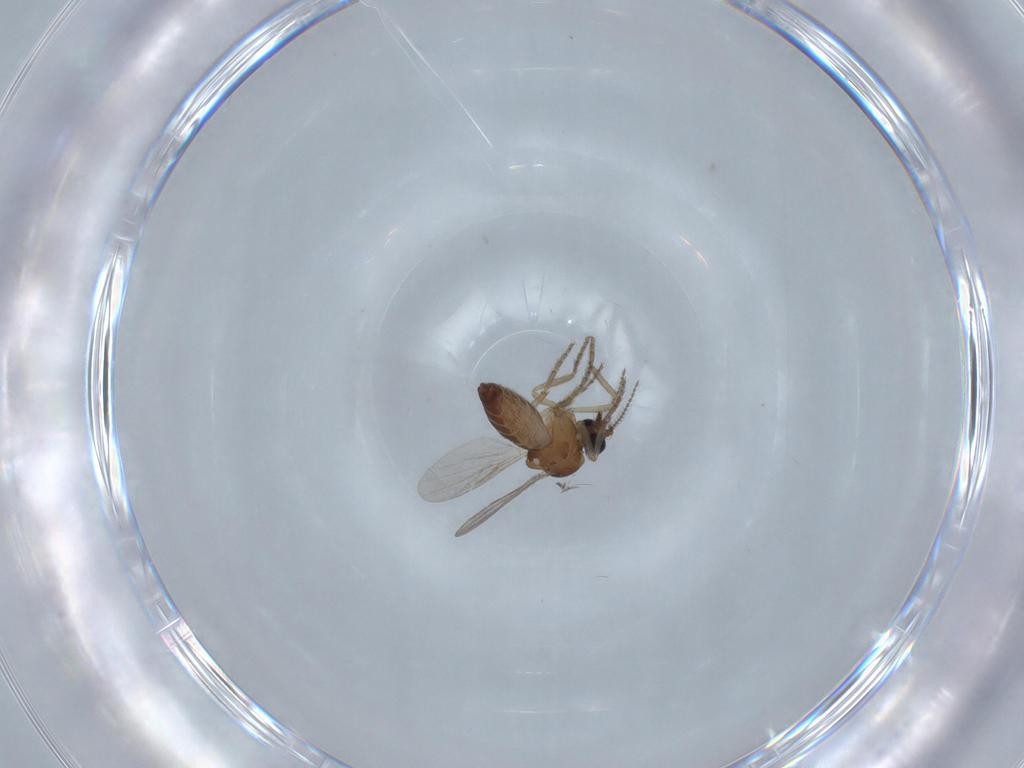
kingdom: Animalia
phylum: Arthropoda
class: Insecta
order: Diptera
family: Ceratopogonidae
